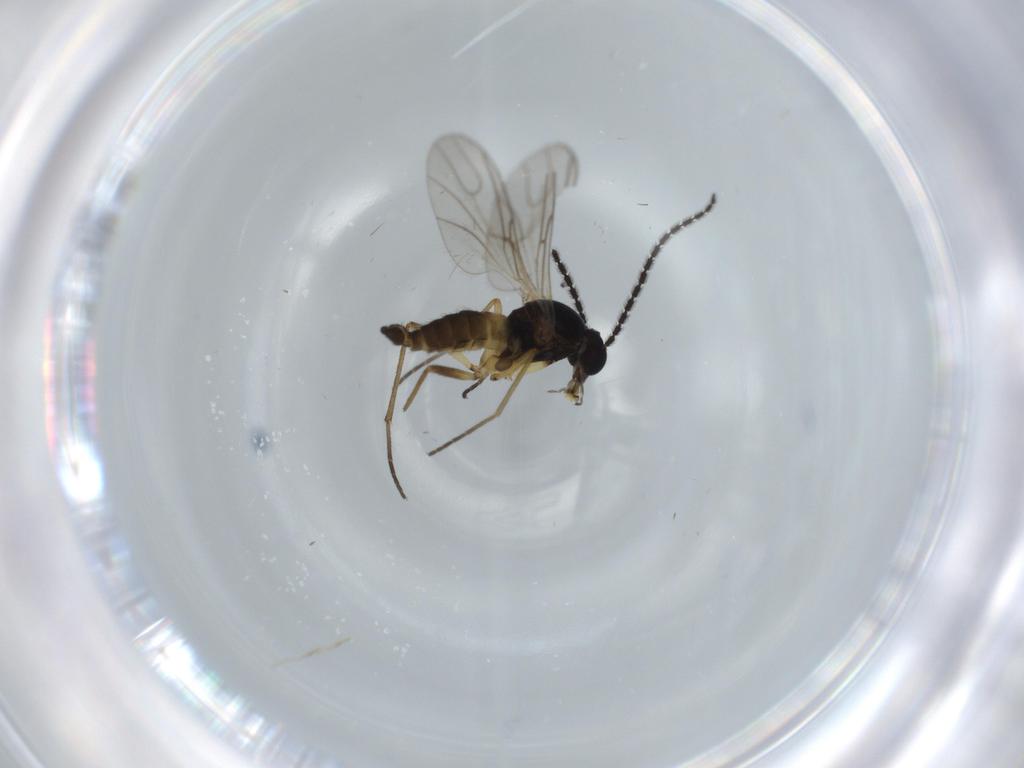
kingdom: Animalia
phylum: Arthropoda
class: Insecta
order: Diptera
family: Sciaridae
